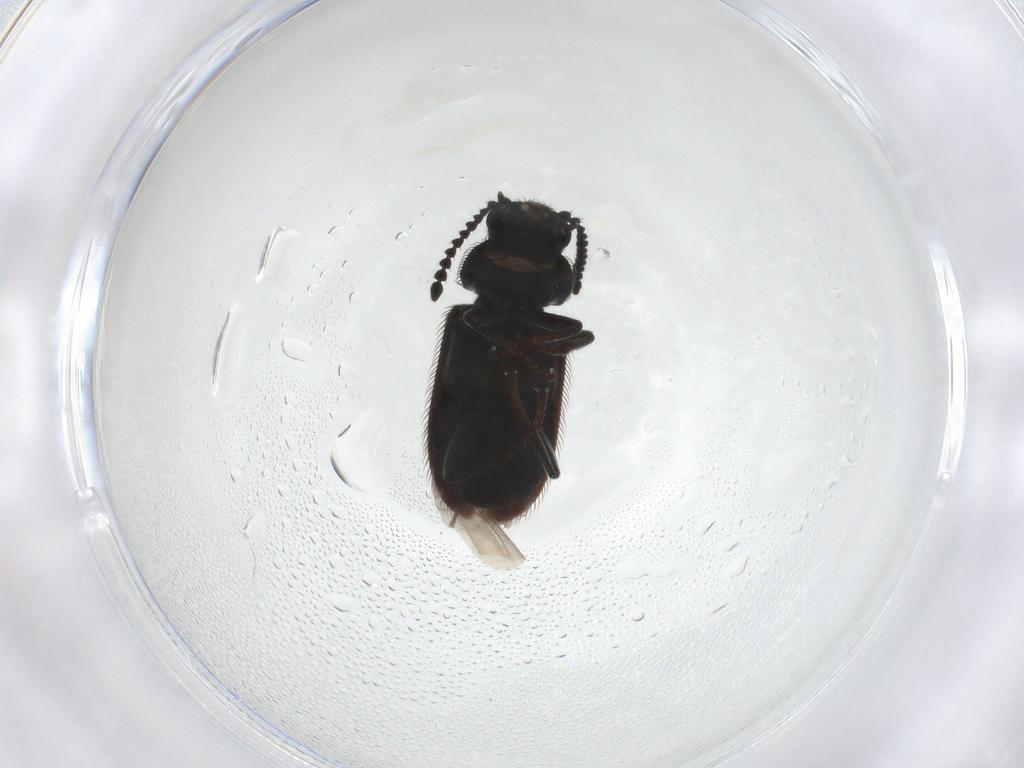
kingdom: Animalia
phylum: Arthropoda
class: Insecta
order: Coleoptera
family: Melyridae
